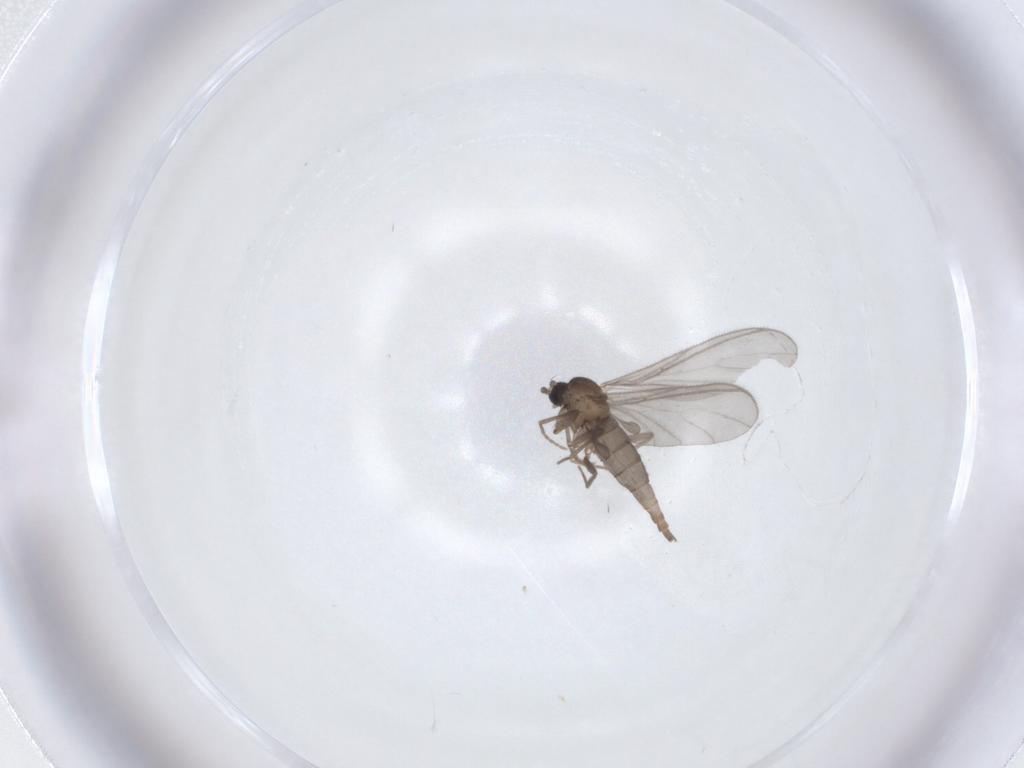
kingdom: Animalia
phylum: Arthropoda
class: Insecta
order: Diptera
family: Sciaridae
